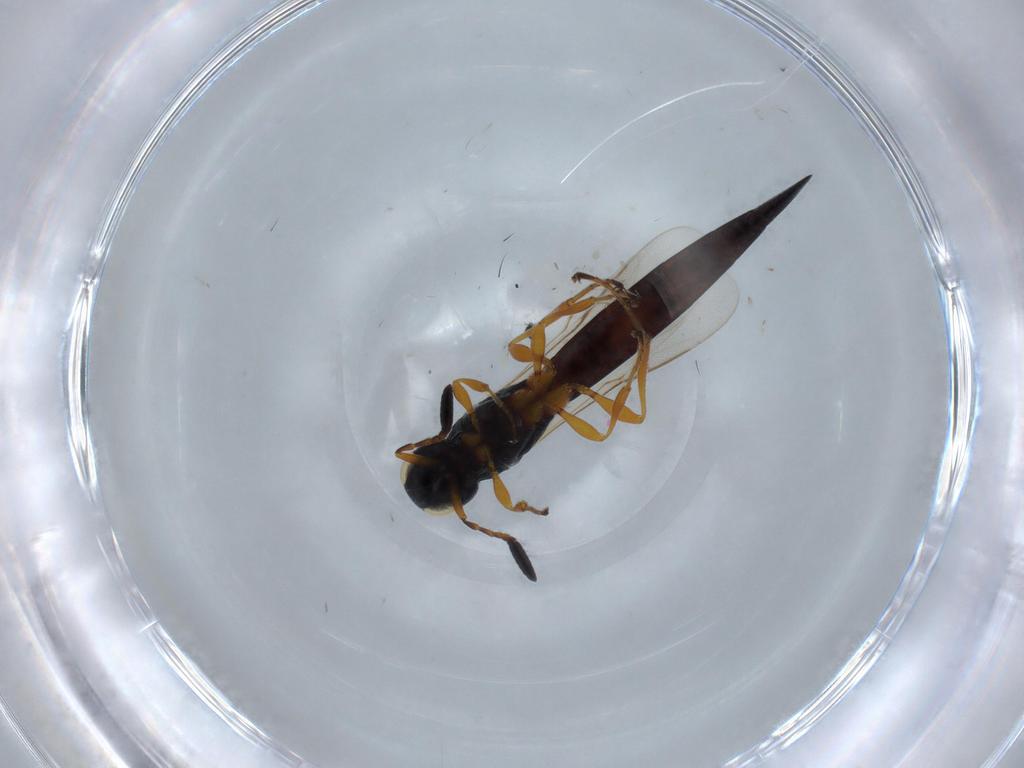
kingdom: Animalia
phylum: Arthropoda
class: Insecta
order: Hymenoptera
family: Scelionidae
